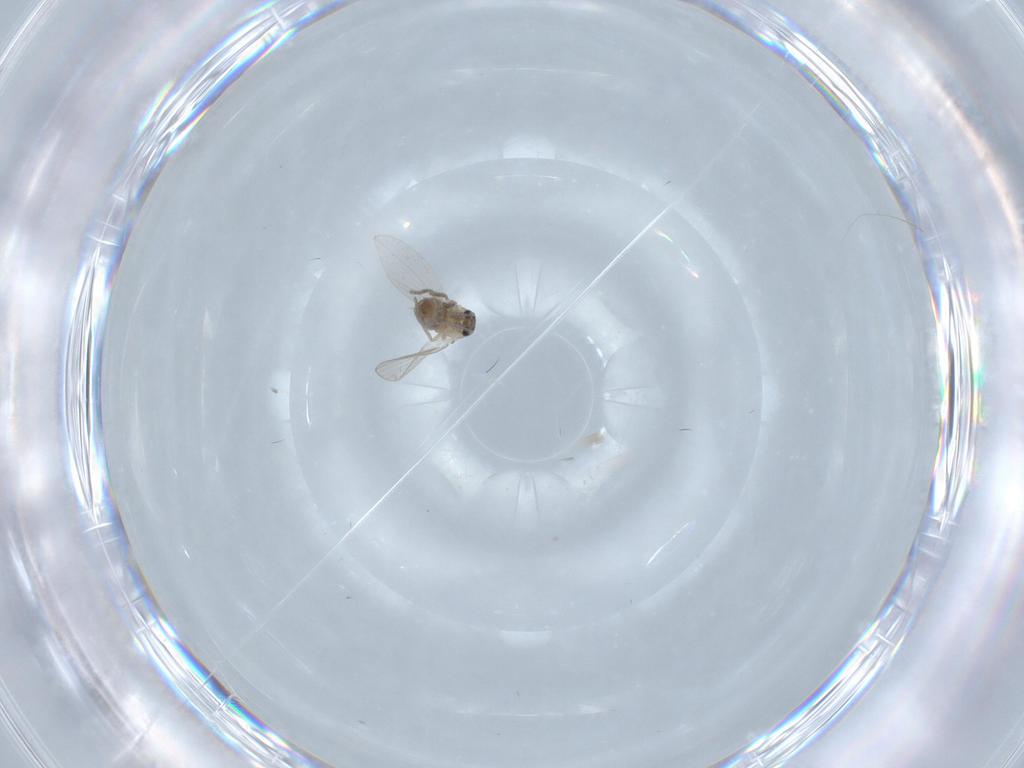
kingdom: Animalia
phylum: Arthropoda
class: Insecta
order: Diptera
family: Psychodidae
